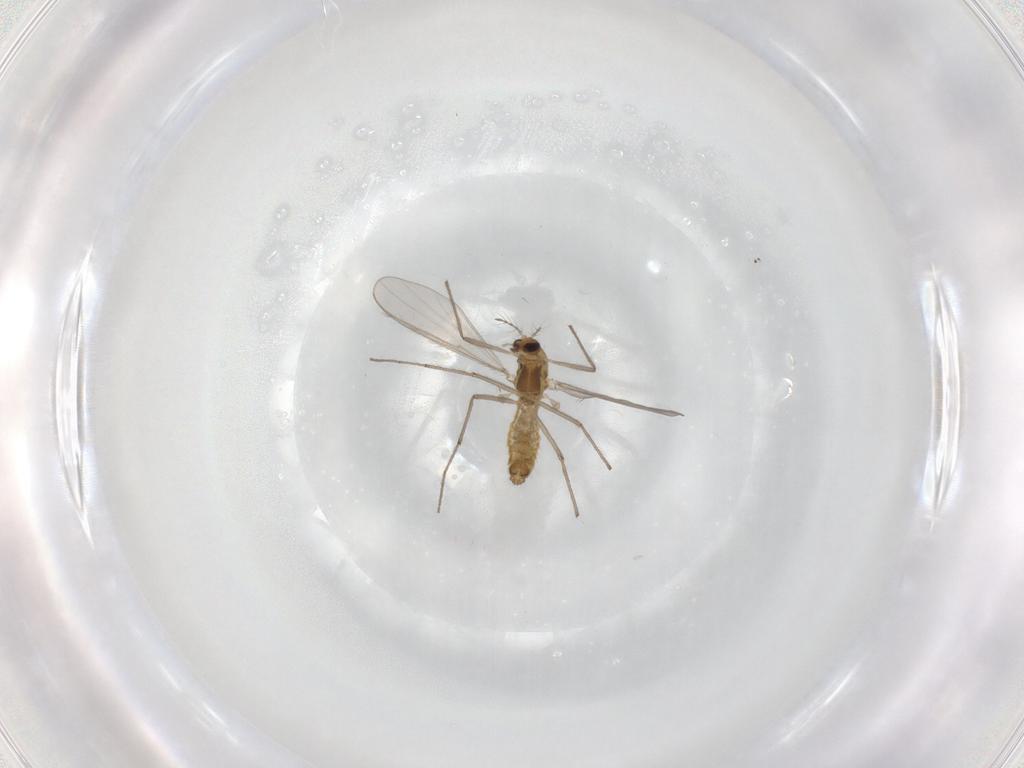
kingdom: Animalia
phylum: Arthropoda
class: Insecta
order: Diptera
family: Chironomidae
